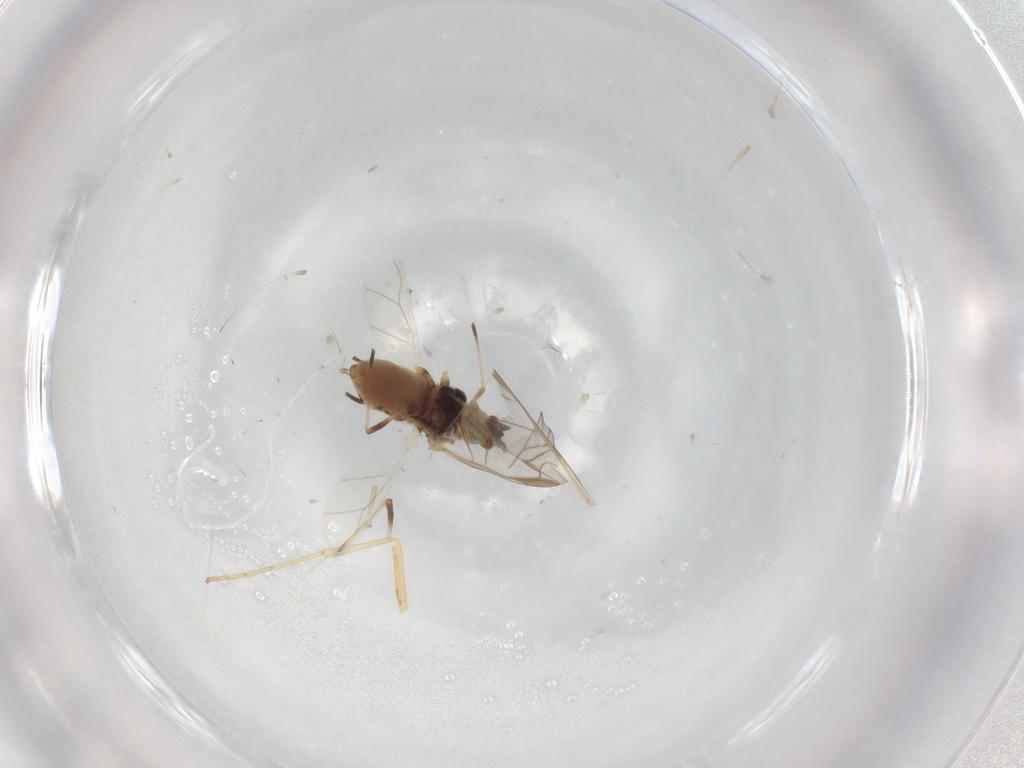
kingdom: Animalia
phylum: Arthropoda
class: Insecta
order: Hemiptera
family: Aphididae
